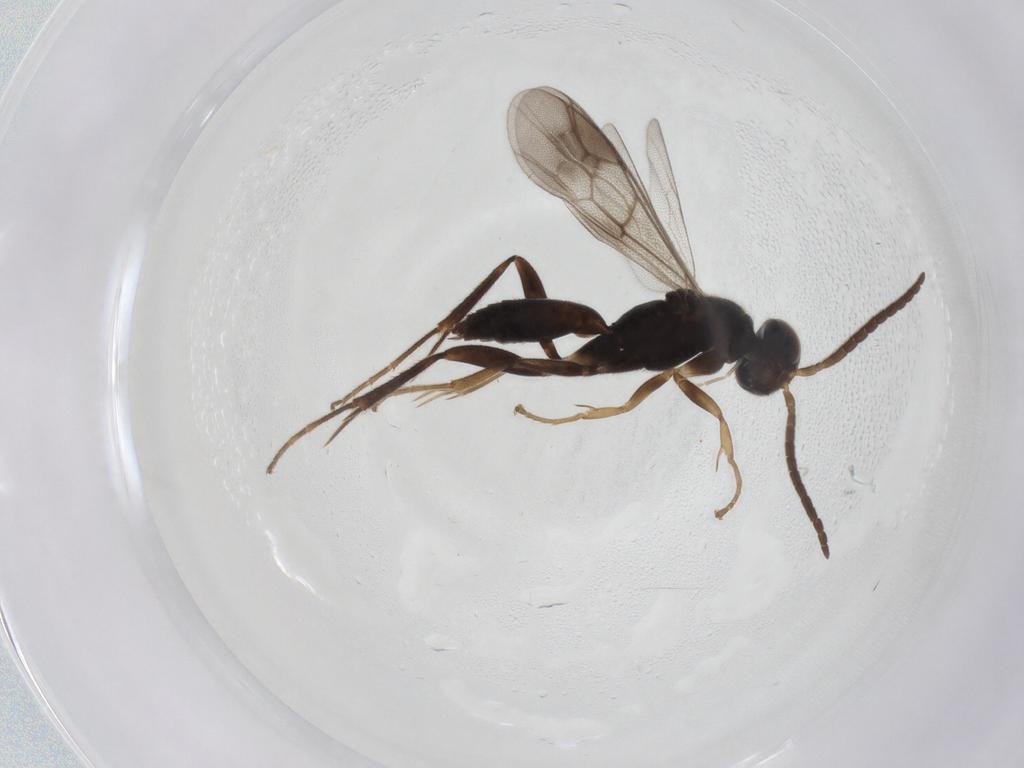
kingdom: Animalia
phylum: Arthropoda
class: Insecta
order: Hymenoptera
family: Pompilidae
